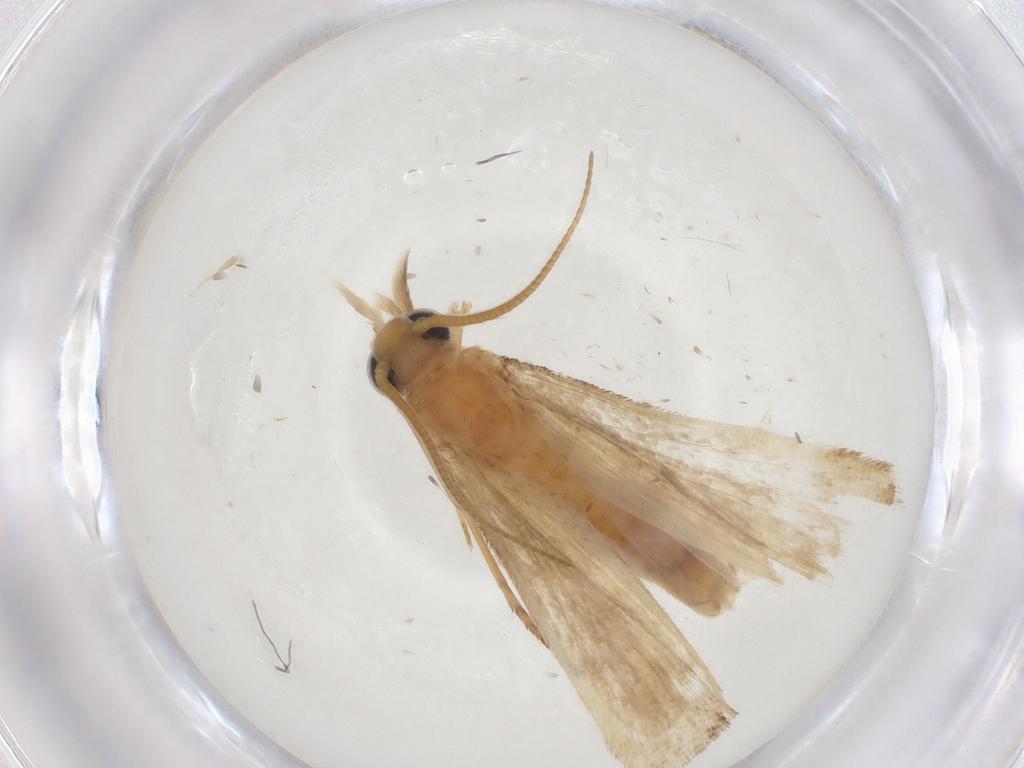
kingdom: Animalia
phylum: Arthropoda
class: Insecta
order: Lepidoptera
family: Pyralidae
